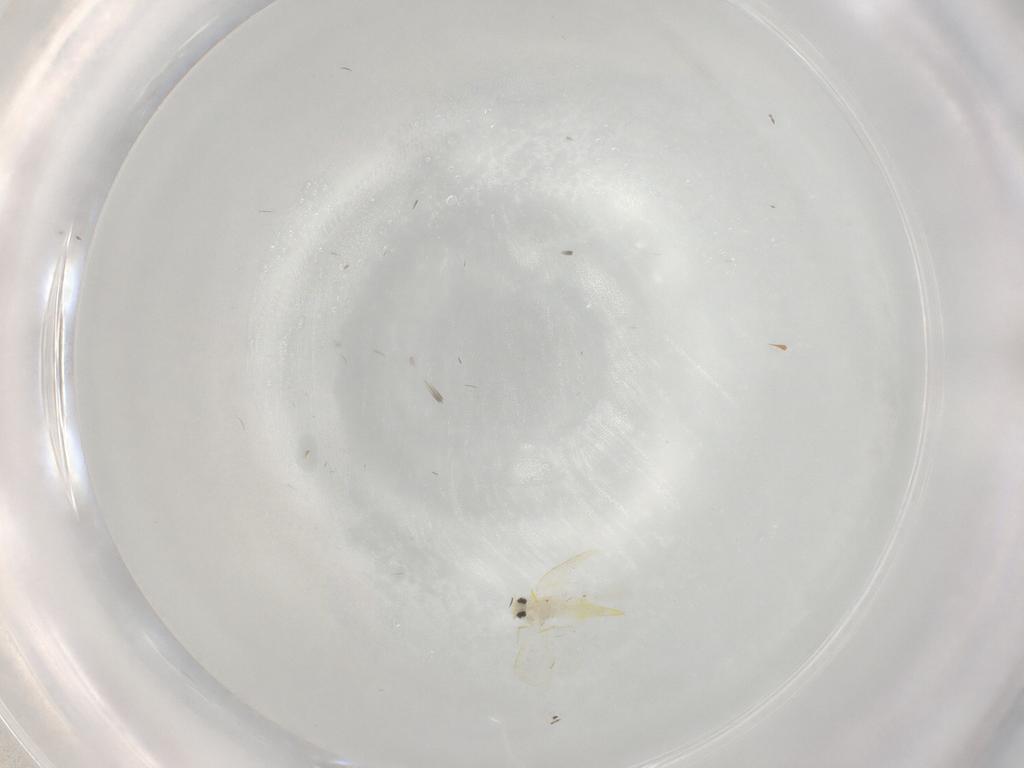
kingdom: Animalia
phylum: Arthropoda
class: Insecta
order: Hemiptera
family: Aleyrodidae
